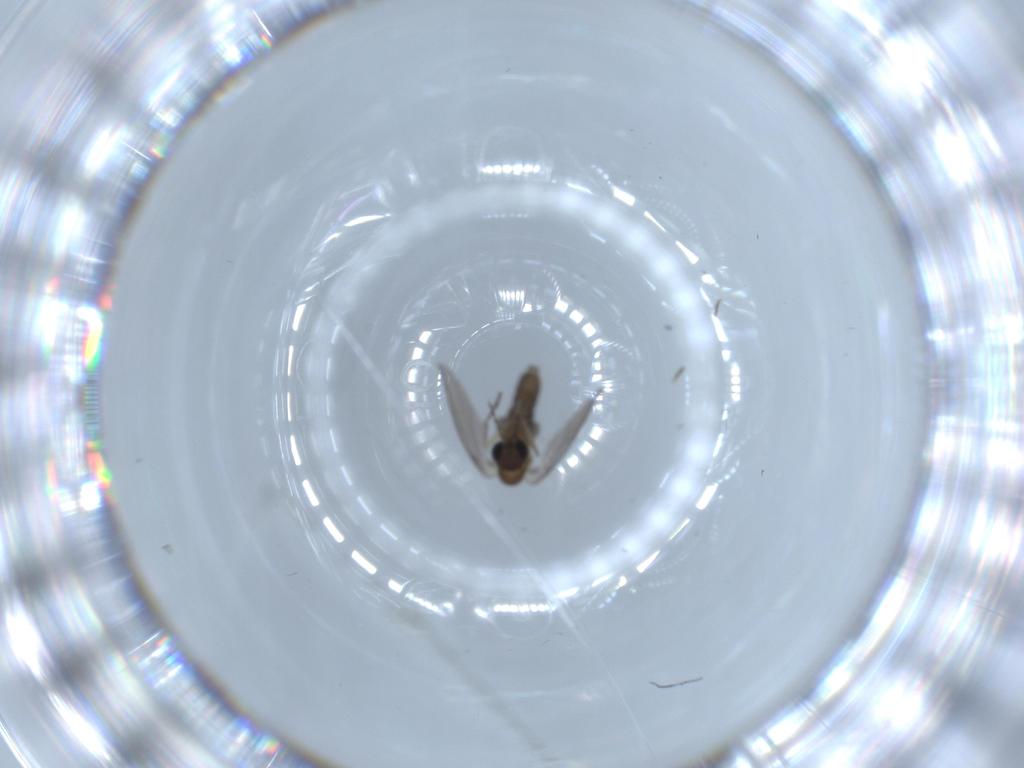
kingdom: Animalia
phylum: Arthropoda
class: Insecta
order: Diptera
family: Psychodidae
